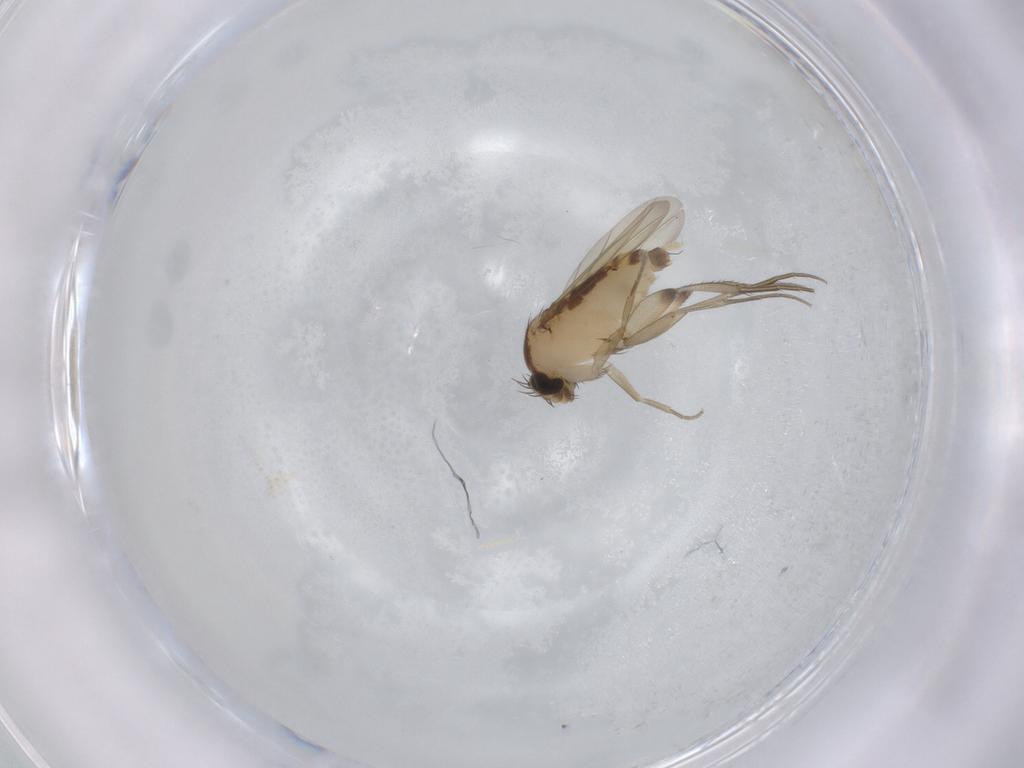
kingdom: Animalia
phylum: Arthropoda
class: Insecta
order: Diptera
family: Phoridae
